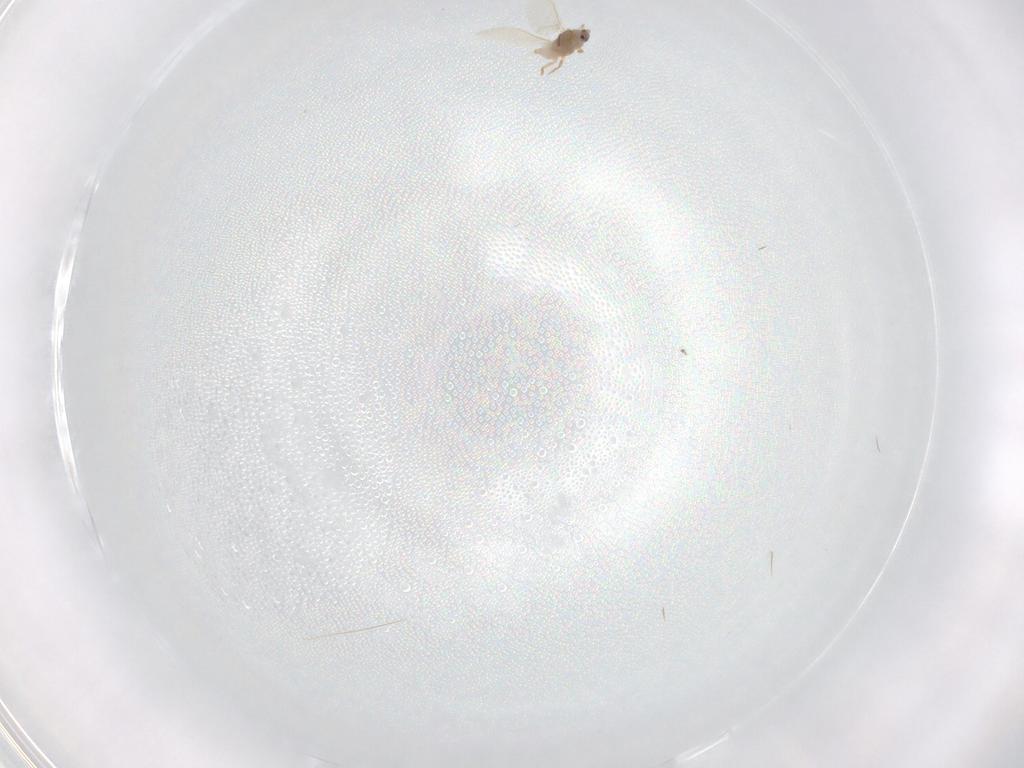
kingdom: Animalia
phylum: Arthropoda
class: Insecta
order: Hemiptera
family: Diaspididae
